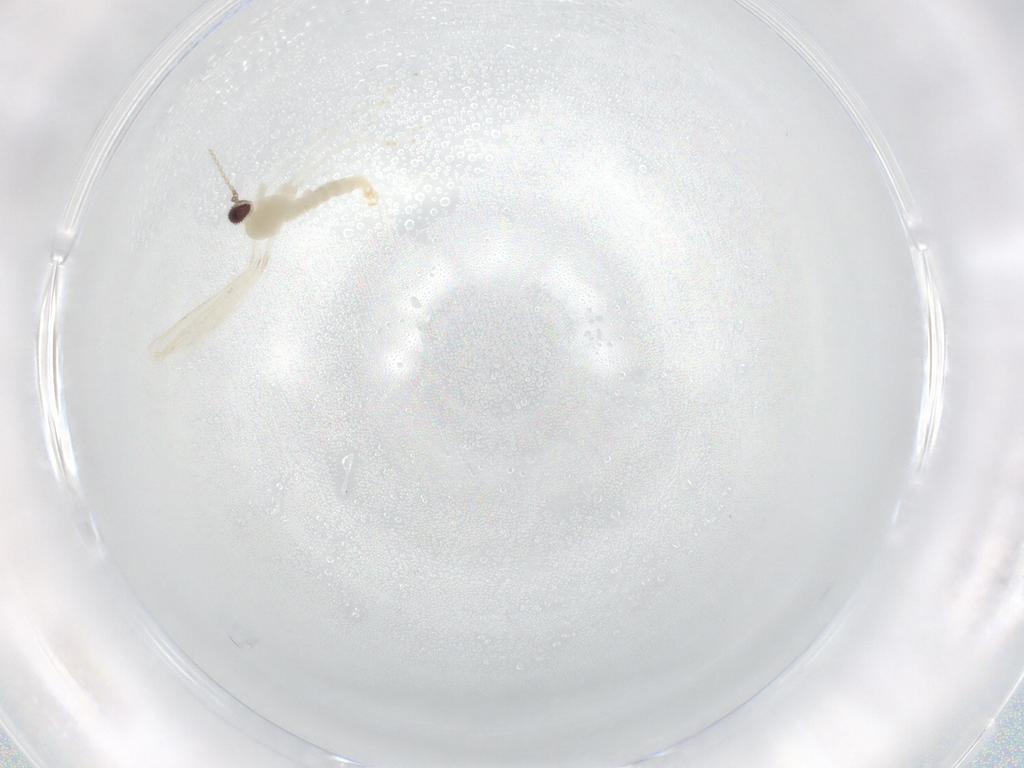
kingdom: Animalia
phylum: Arthropoda
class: Insecta
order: Diptera
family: Cecidomyiidae
